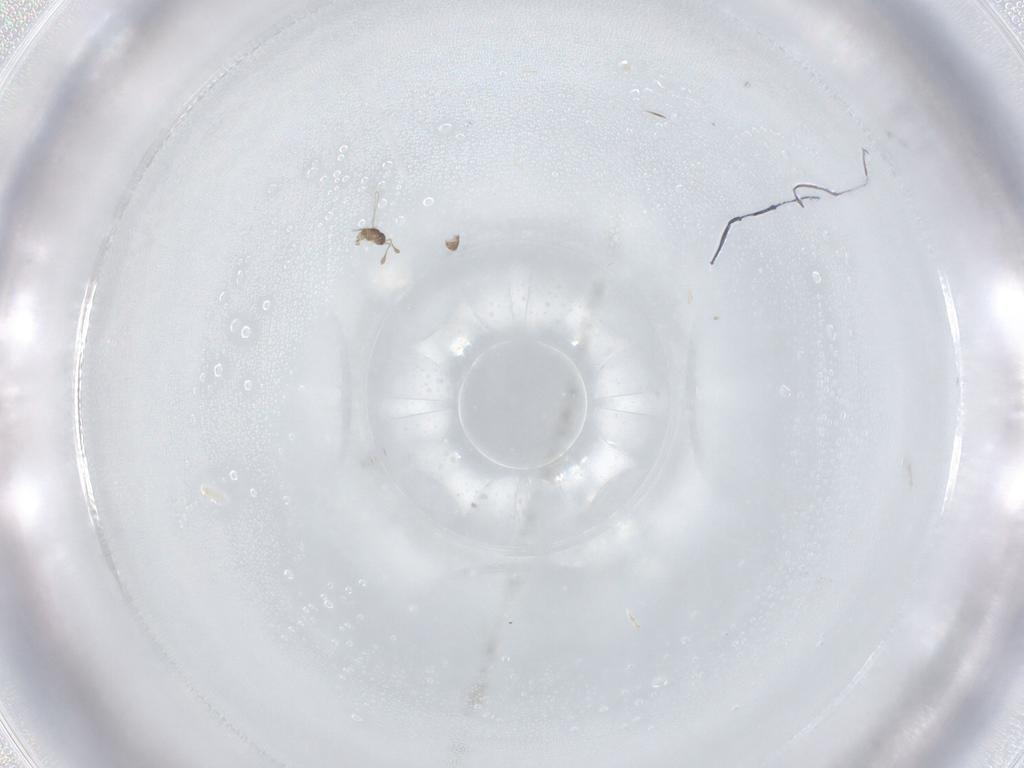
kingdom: Animalia
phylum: Arthropoda
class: Insecta
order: Hymenoptera
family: Mymaridae
